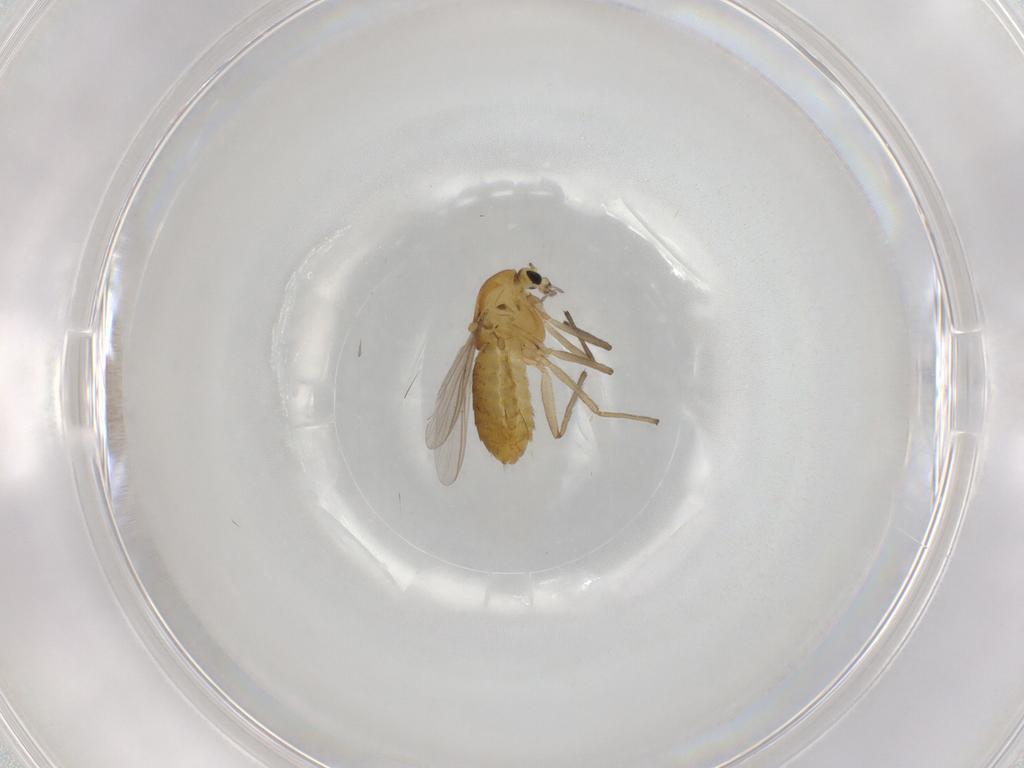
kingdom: Animalia
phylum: Arthropoda
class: Insecta
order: Diptera
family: Chironomidae
